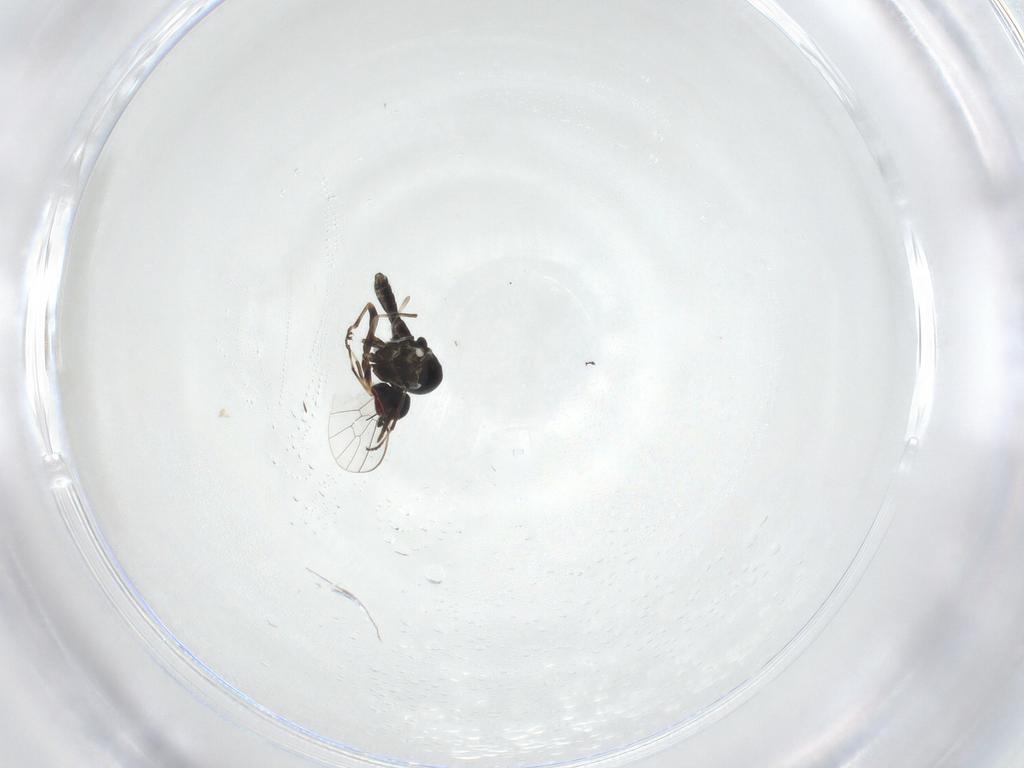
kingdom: Animalia
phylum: Arthropoda
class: Insecta
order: Diptera
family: Mythicomyiidae
